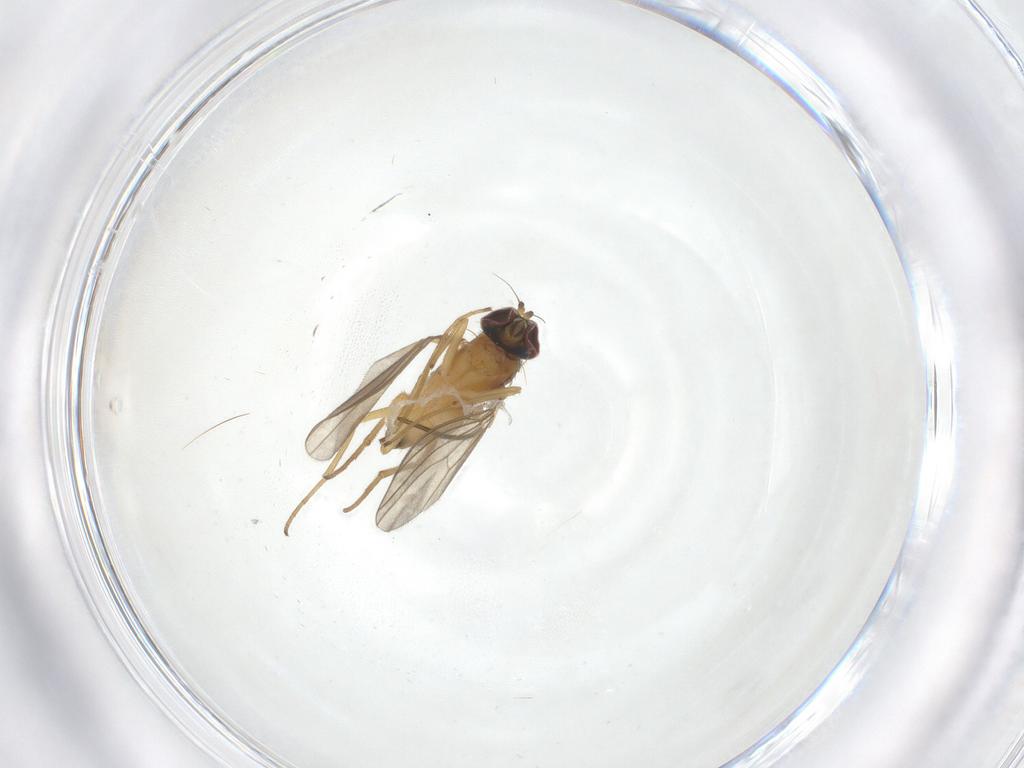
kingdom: Animalia
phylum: Arthropoda
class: Insecta
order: Diptera
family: Dolichopodidae
